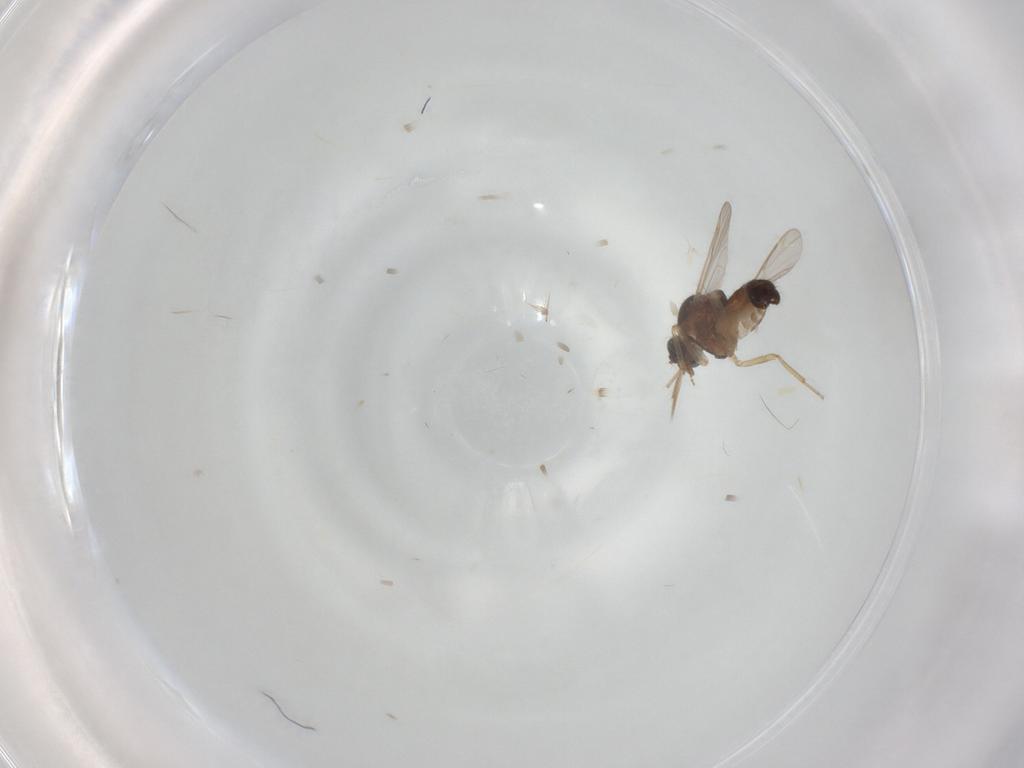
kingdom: Animalia
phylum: Arthropoda
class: Insecta
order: Diptera
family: Ceratopogonidae
